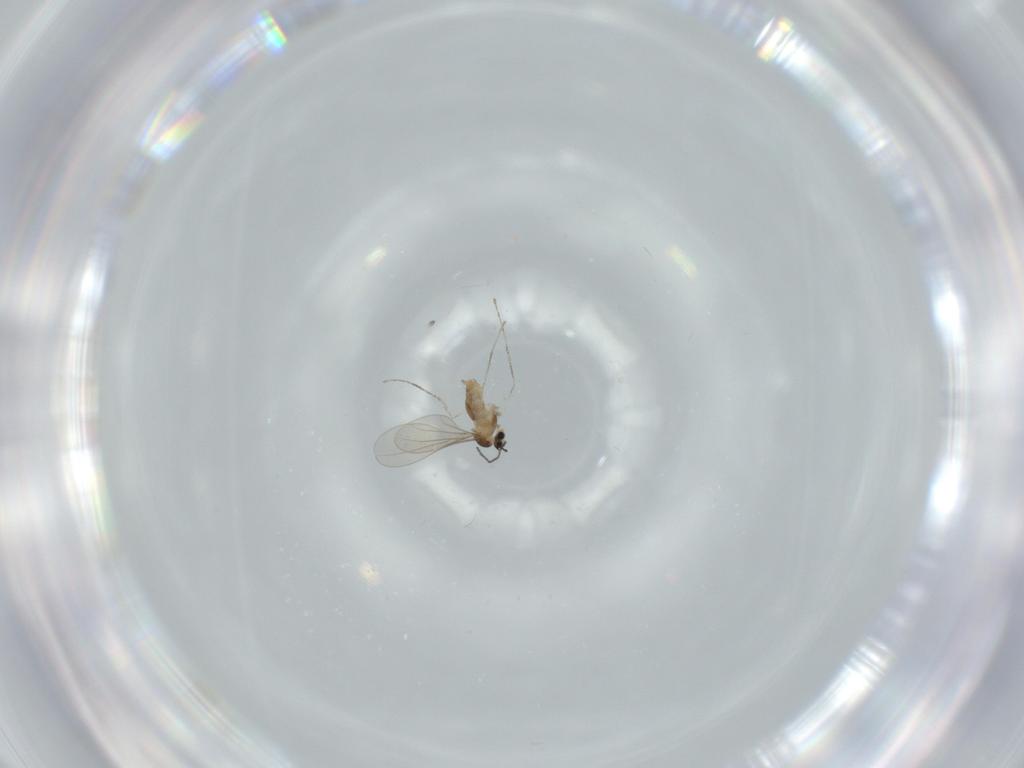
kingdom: Animalia
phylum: Arthropoda
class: Insecta
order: Diptera
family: Cecidomyiidae
